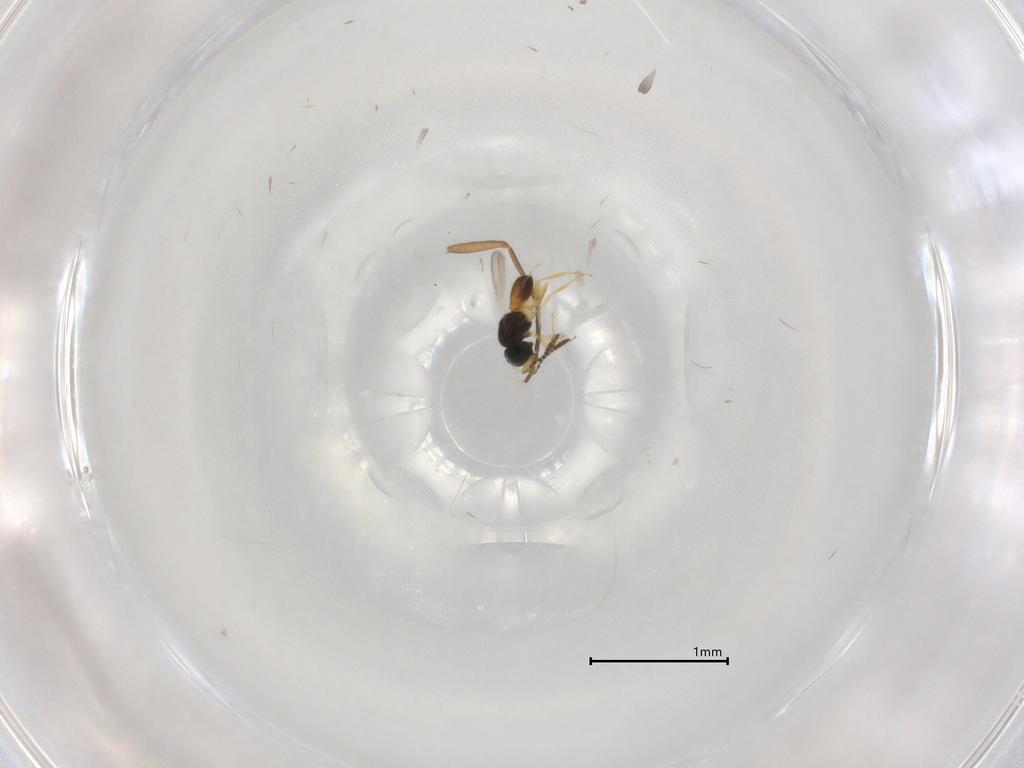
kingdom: Animalia
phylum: Arthropoda
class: Insecta
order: Hymenoptera
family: Scelionidae
